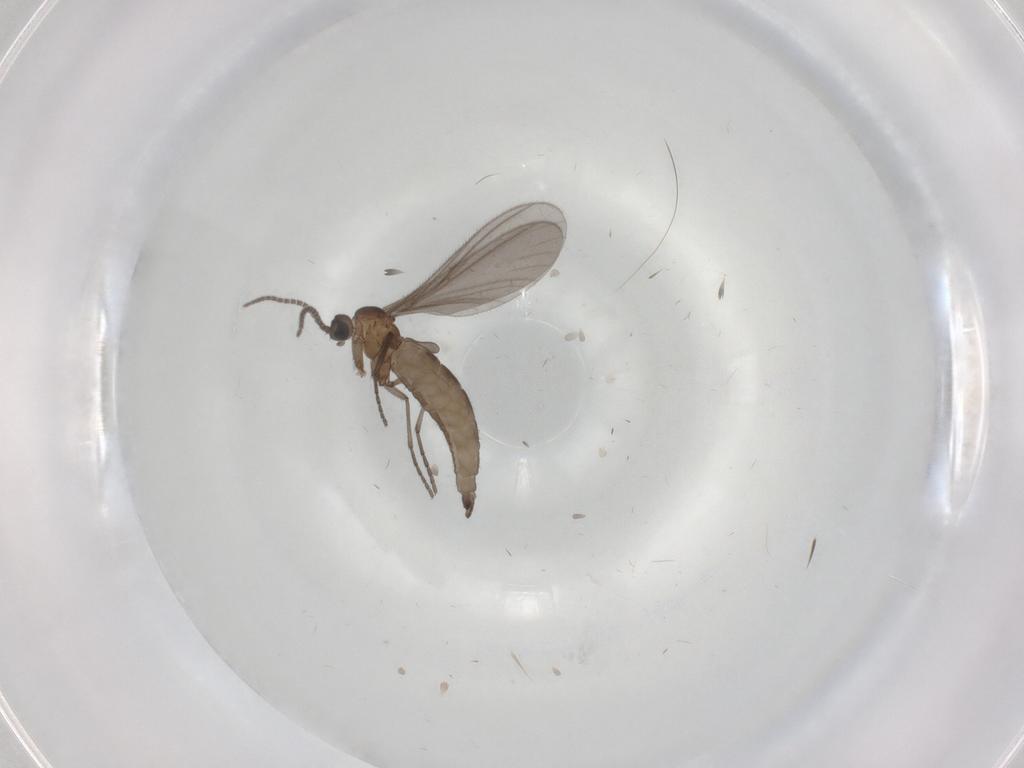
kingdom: Animalia
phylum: Arthropoda
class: Insecta
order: Diptera
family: Sciaridae
